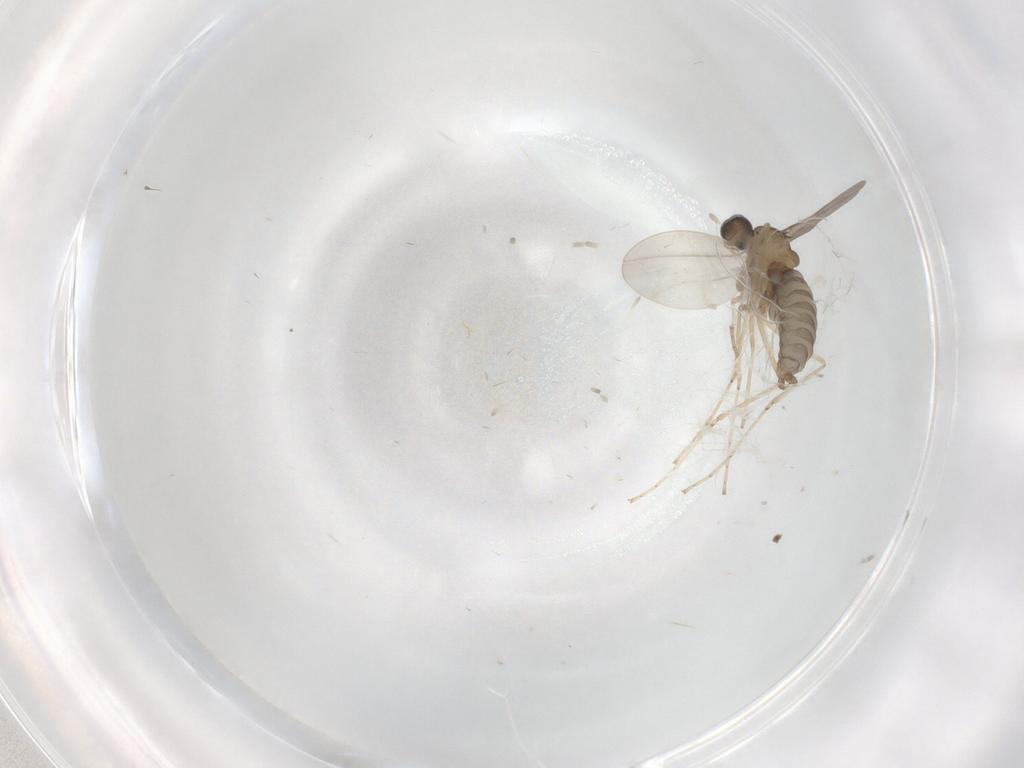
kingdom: Animalia
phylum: Arthropoda
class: Insecta
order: Diptera
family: Cecidomyiidae
